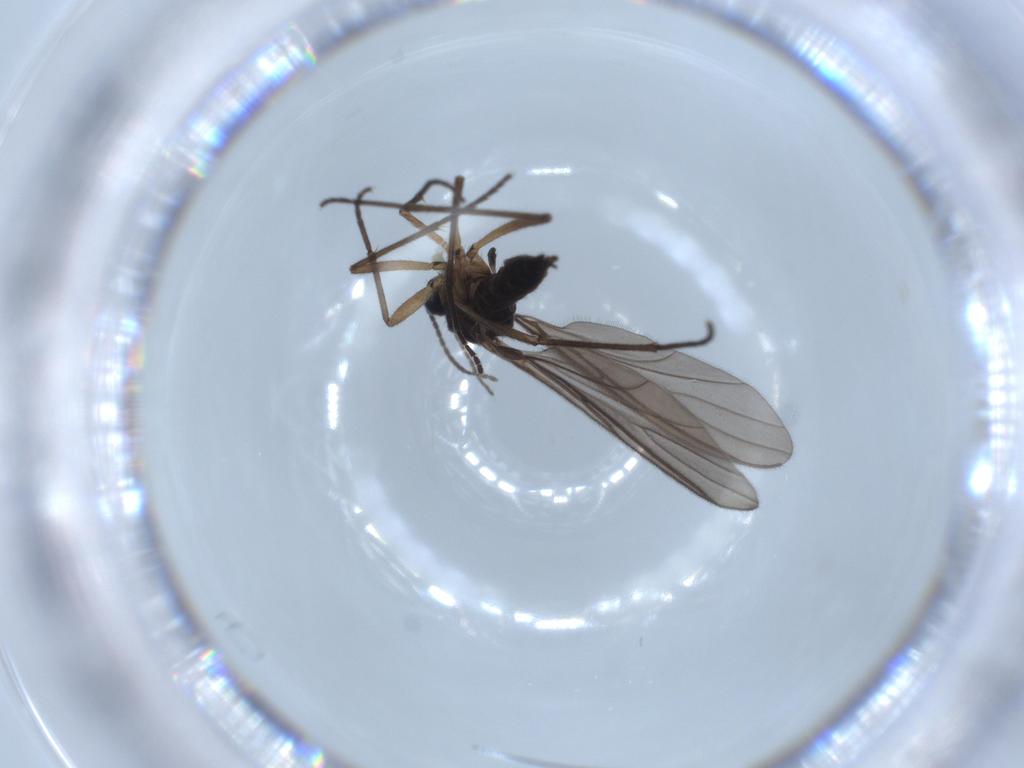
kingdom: Animalia
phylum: Arthropoda
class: Insecta
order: Diptera
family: Sciaridae
